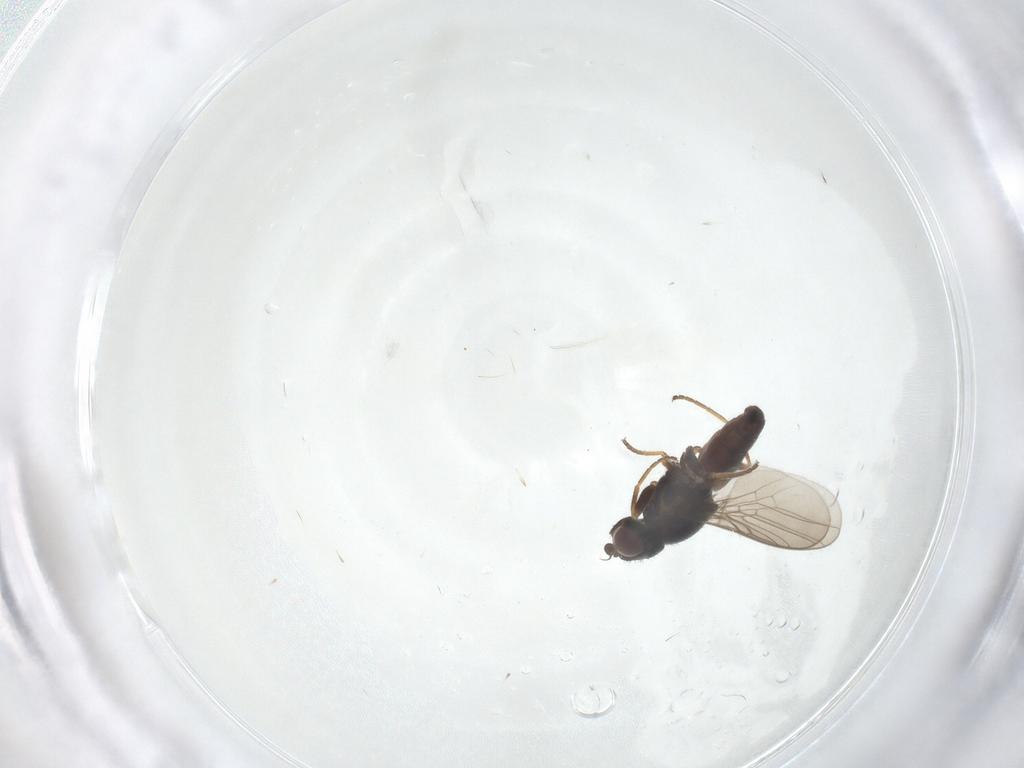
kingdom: Animalia
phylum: Arthropoda
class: Insecta
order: Diptera
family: Chloropidae
